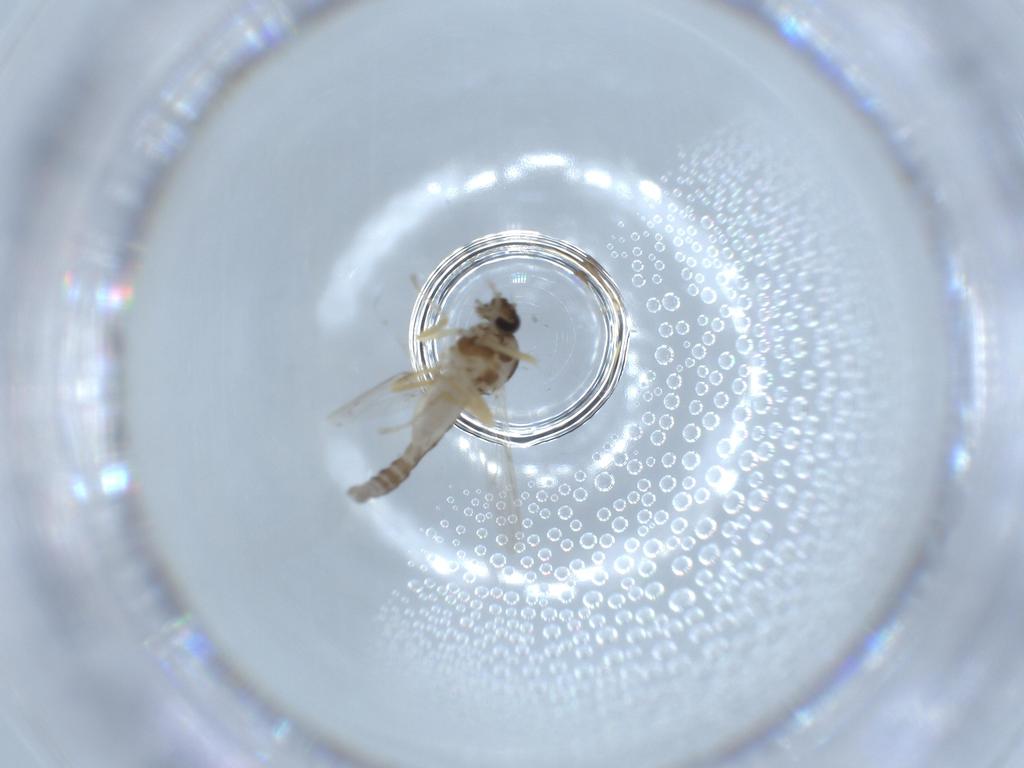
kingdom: Animalia
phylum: Arthropoda
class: Insecta
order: Diptera
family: Ceratopogonidae
